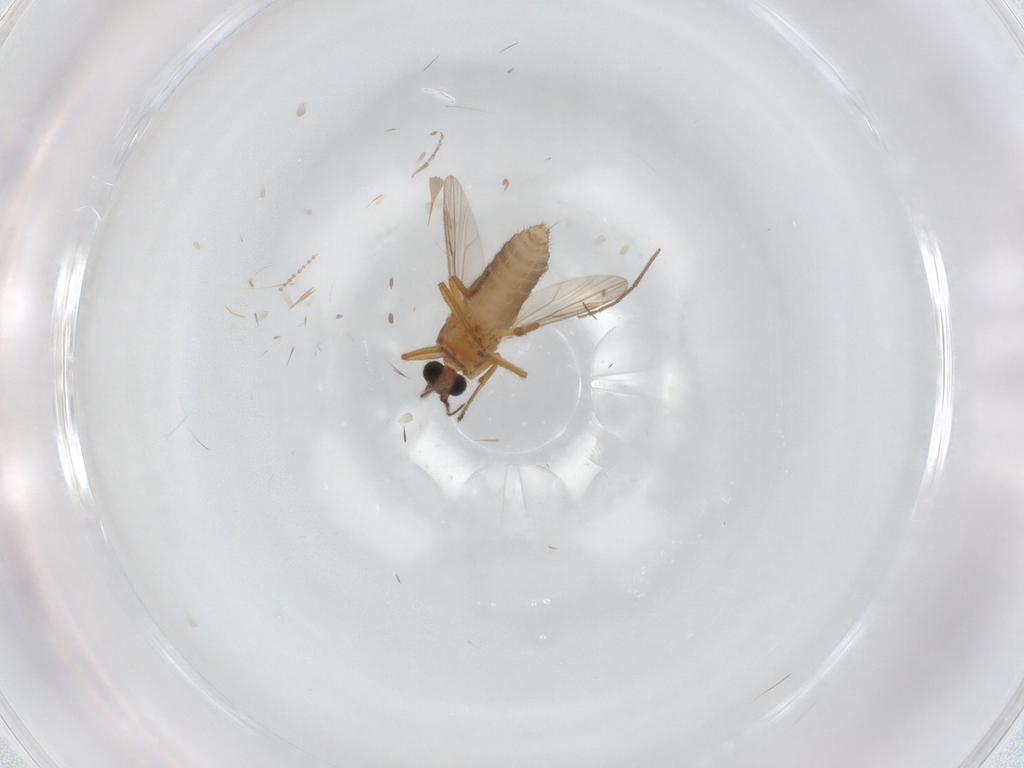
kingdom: Animalia
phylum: Arthropoda
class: Insecta
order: Diptera
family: Ceratopogonidae
